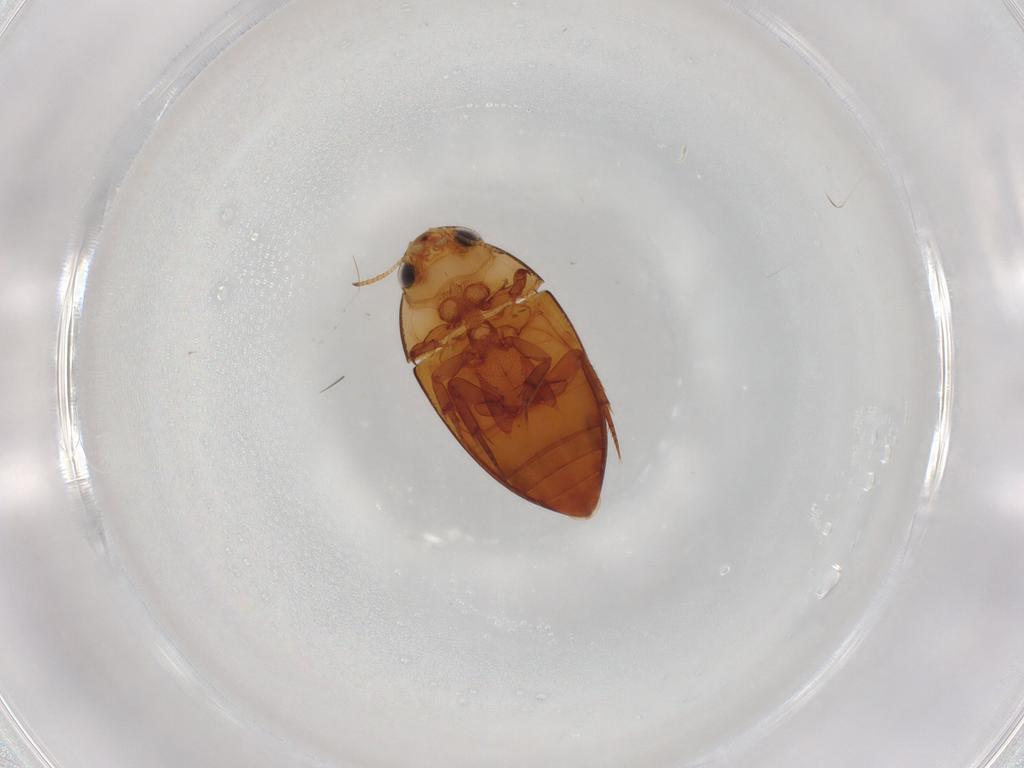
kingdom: Animalia
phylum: Arthropoda
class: Insecta
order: Coleoptera
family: Noteridae
